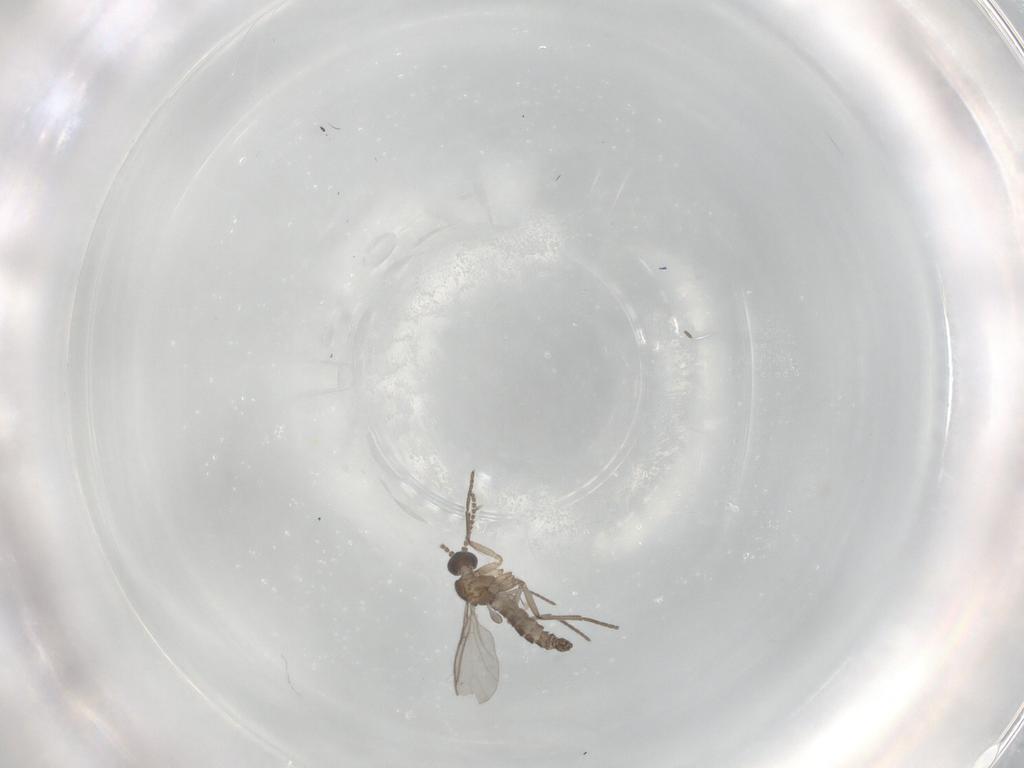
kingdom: Animalia
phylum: Arthropoda
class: Insecta
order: Diptera
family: Sciaridae
